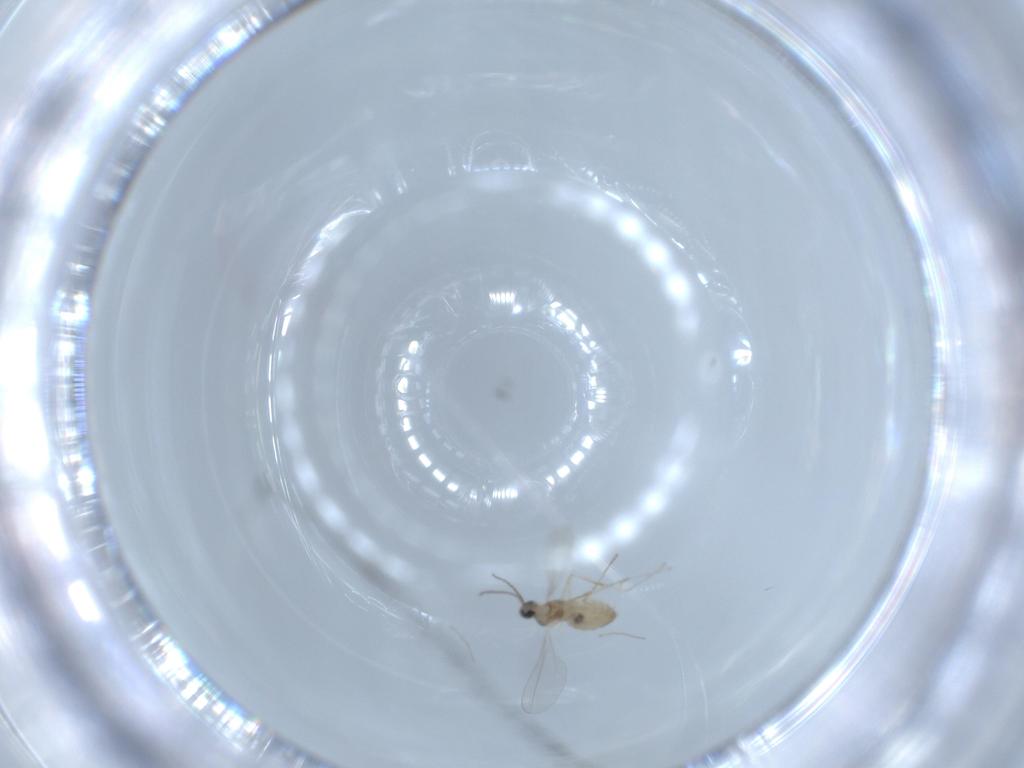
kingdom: Animalia
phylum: Arthropoda
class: Insecta
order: Diptera
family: Cecidomyiidae
